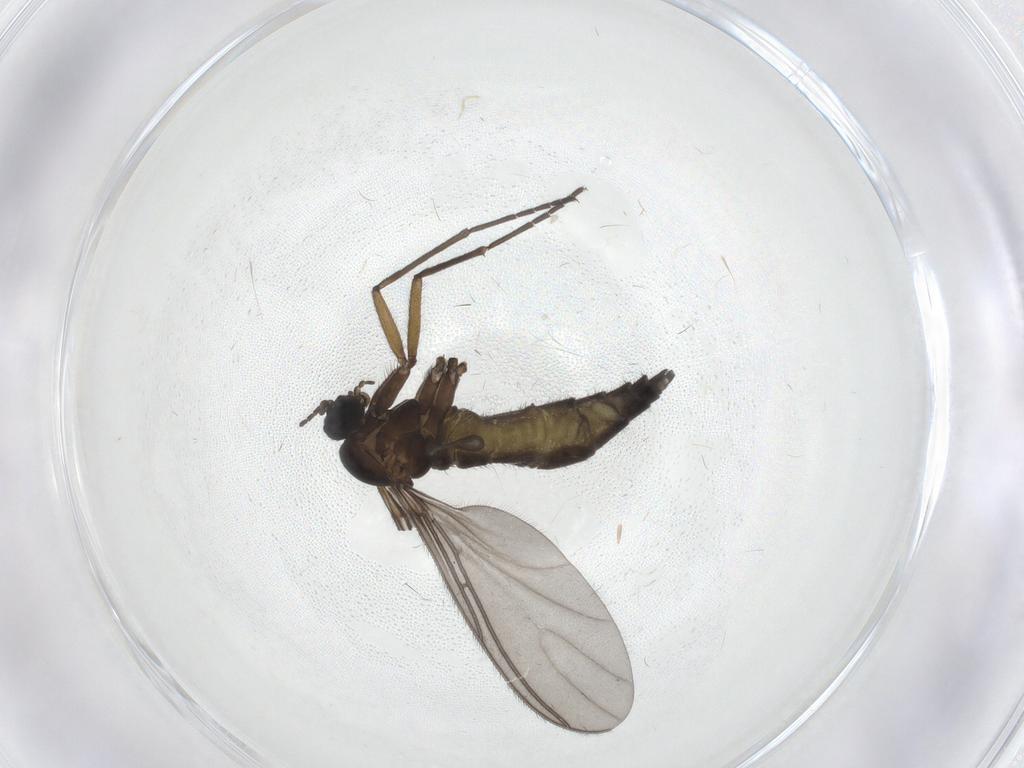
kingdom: Animalia
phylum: Arthropoda
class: Insecta
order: Diptera
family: Sciaridae
